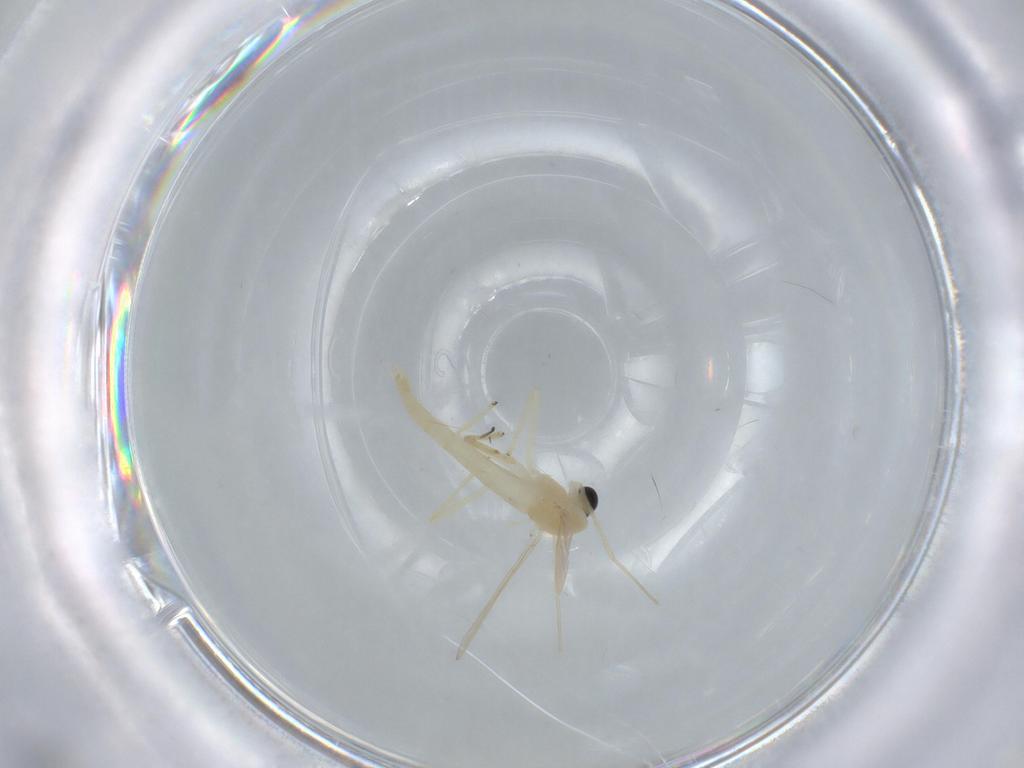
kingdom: Animalia
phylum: Arthropoda
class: Insecta
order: Diptera
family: Chironomidae
